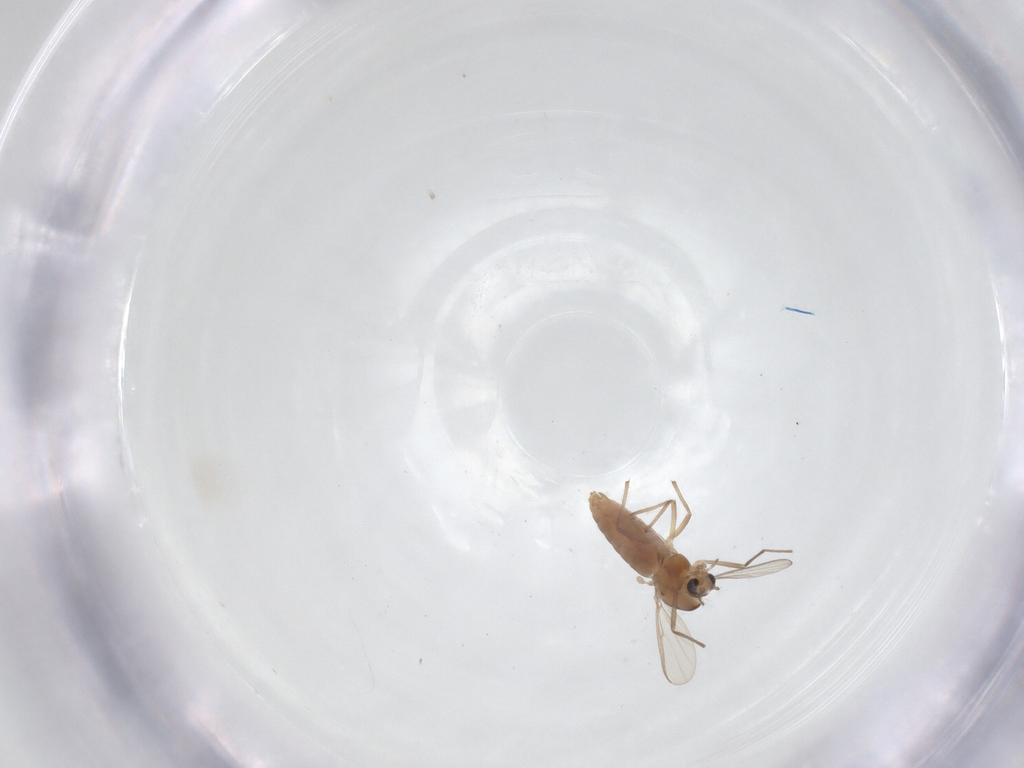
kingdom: Animalia
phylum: Arthropoda
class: Insecta
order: Diptera
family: Chironomidae
